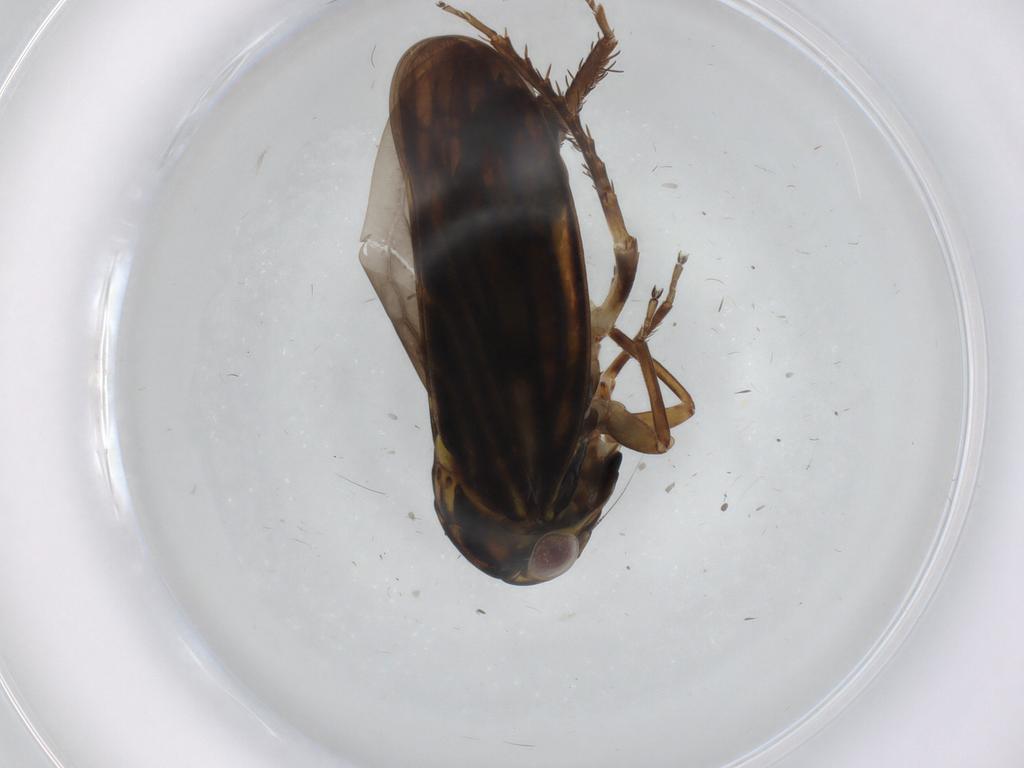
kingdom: Animalia
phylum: Arthropoda
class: Insecta
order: Hemiptera
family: Cicadellidae
